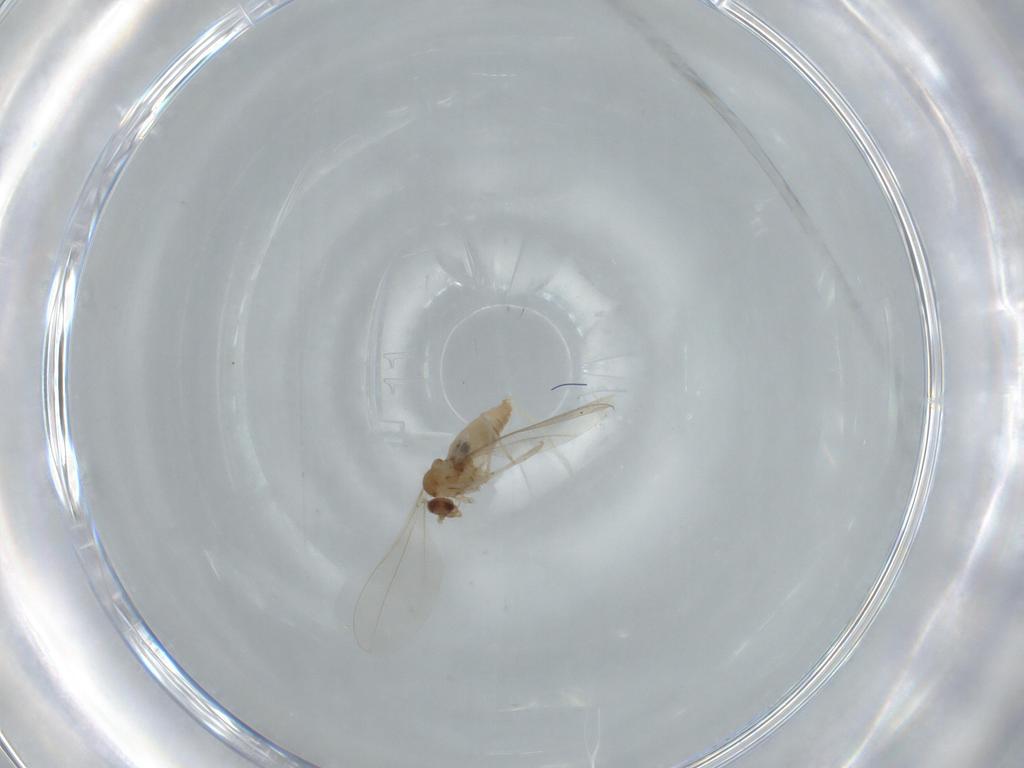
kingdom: Animalia
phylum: Arthropoda
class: Insecta
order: Diptera
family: Cecidomyiidae
